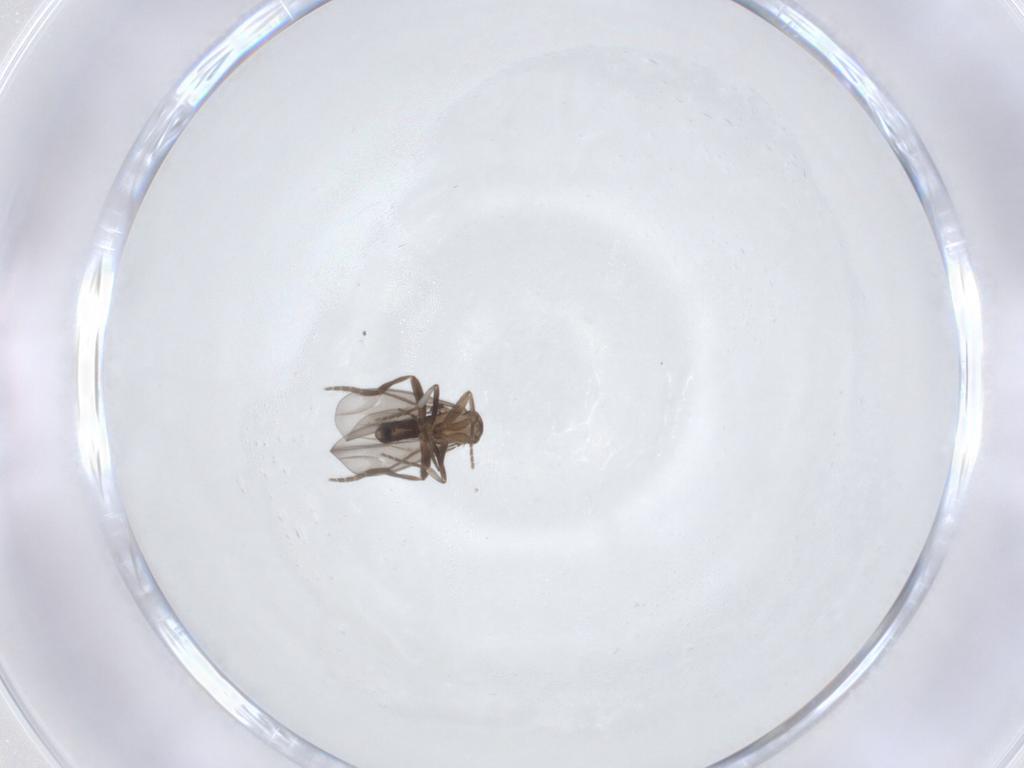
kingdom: Animalia
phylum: Arthropoda
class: Insecta
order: Diptera
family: Phoridae
